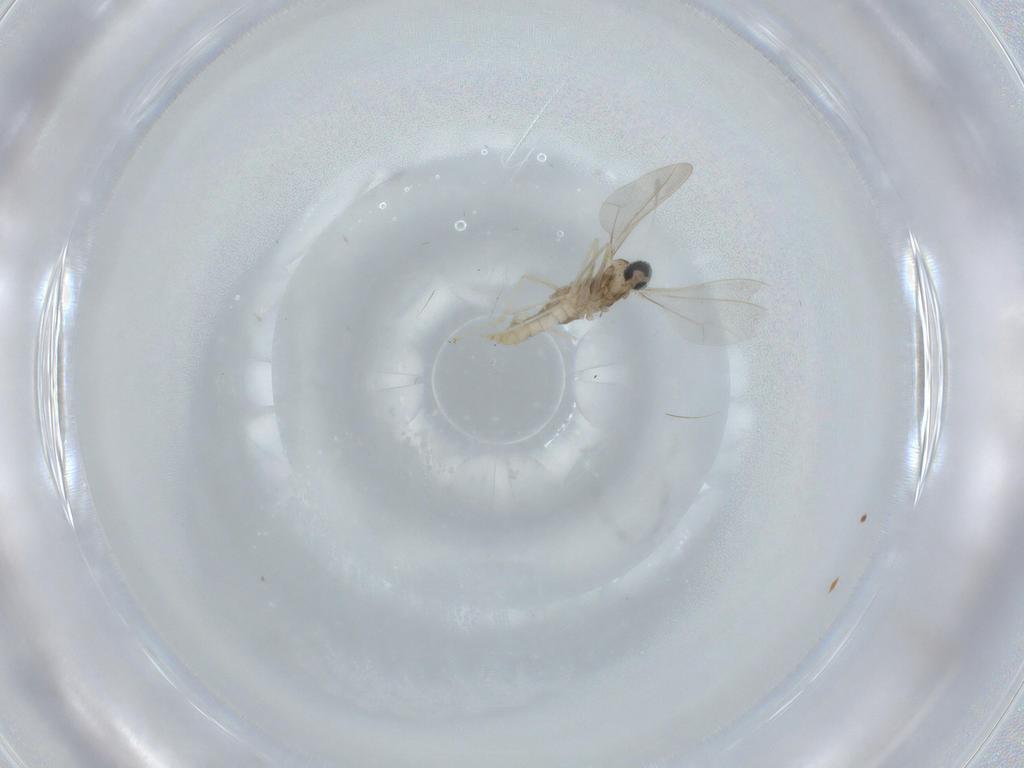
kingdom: Animalia
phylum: Arthropoda
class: Insecta
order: Diptera
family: Cecidomyiidae
